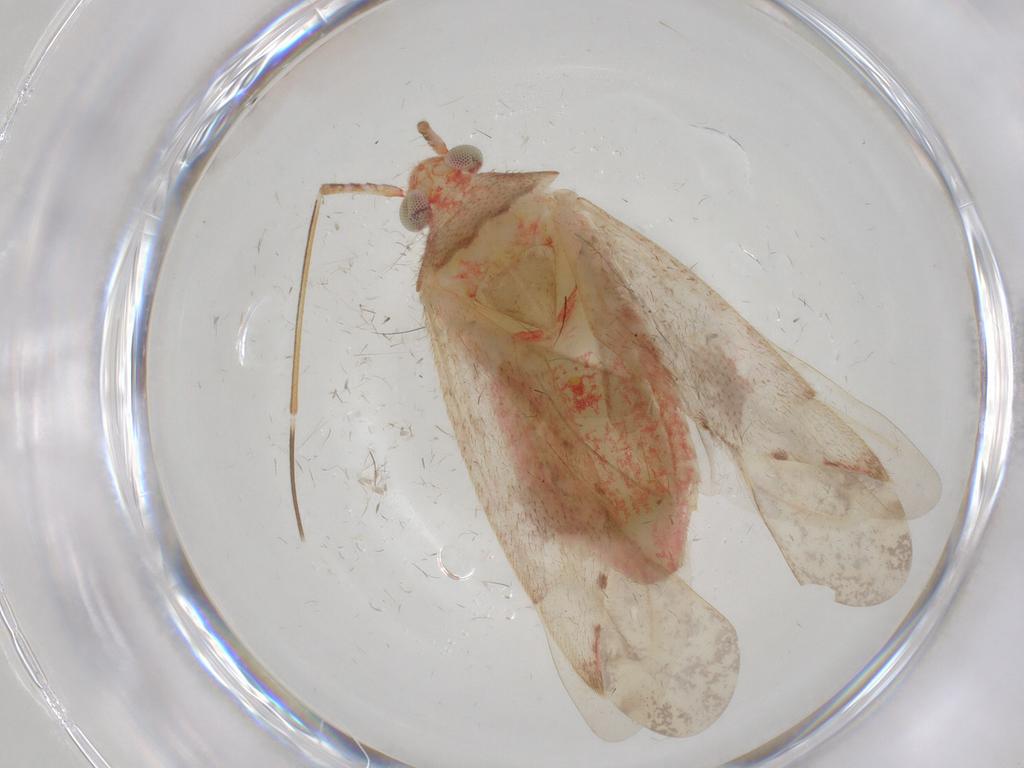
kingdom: Animalia
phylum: Arthropoda
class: Insecta
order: Hemiptera
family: Miridae
